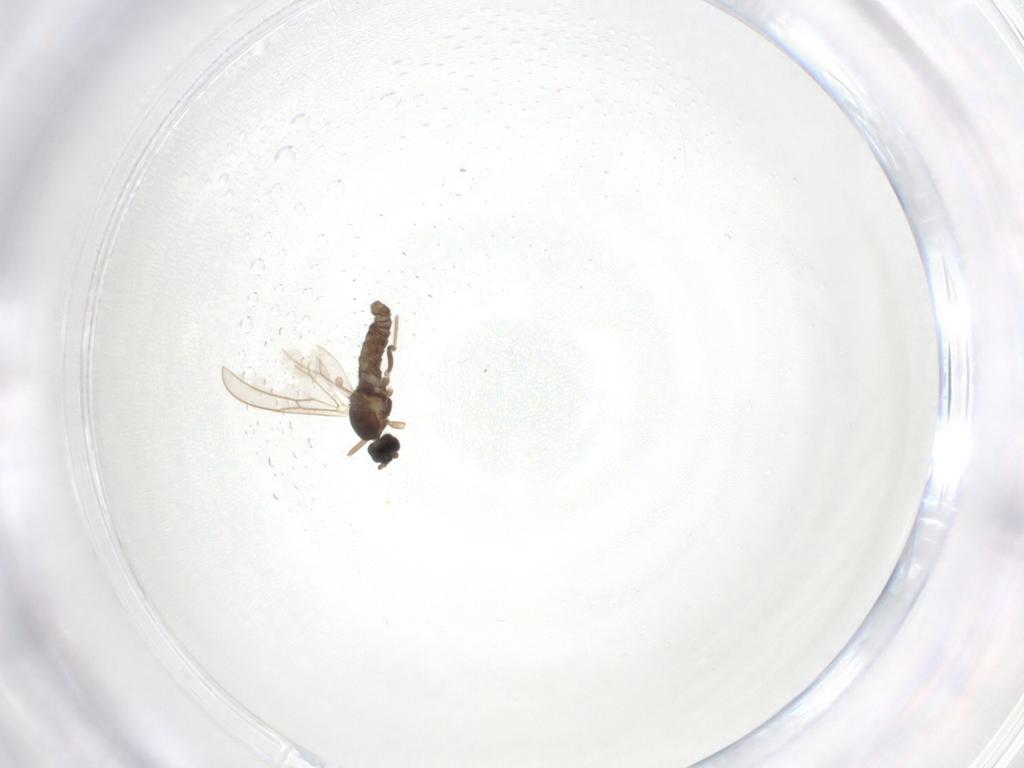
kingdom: Animalia
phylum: Arthropoda
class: Insecta
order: Diptera
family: Cecidomyiidae
